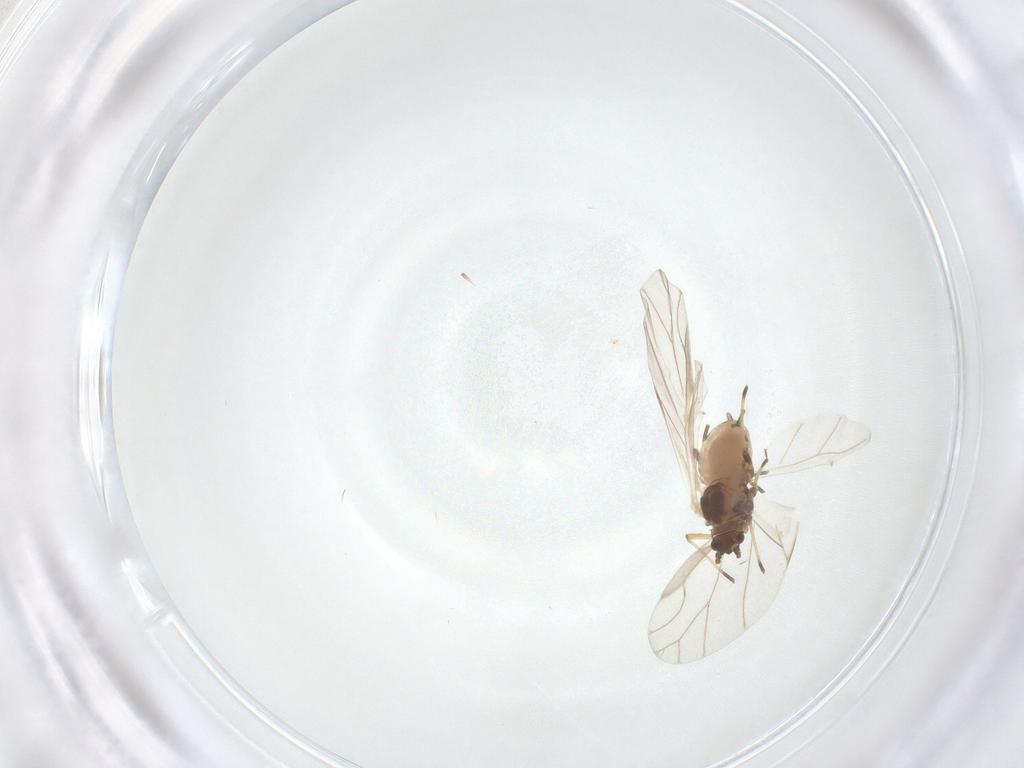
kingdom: Animalia
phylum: Arthropoda
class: Insecta
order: Hemiptera
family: Aphididae
